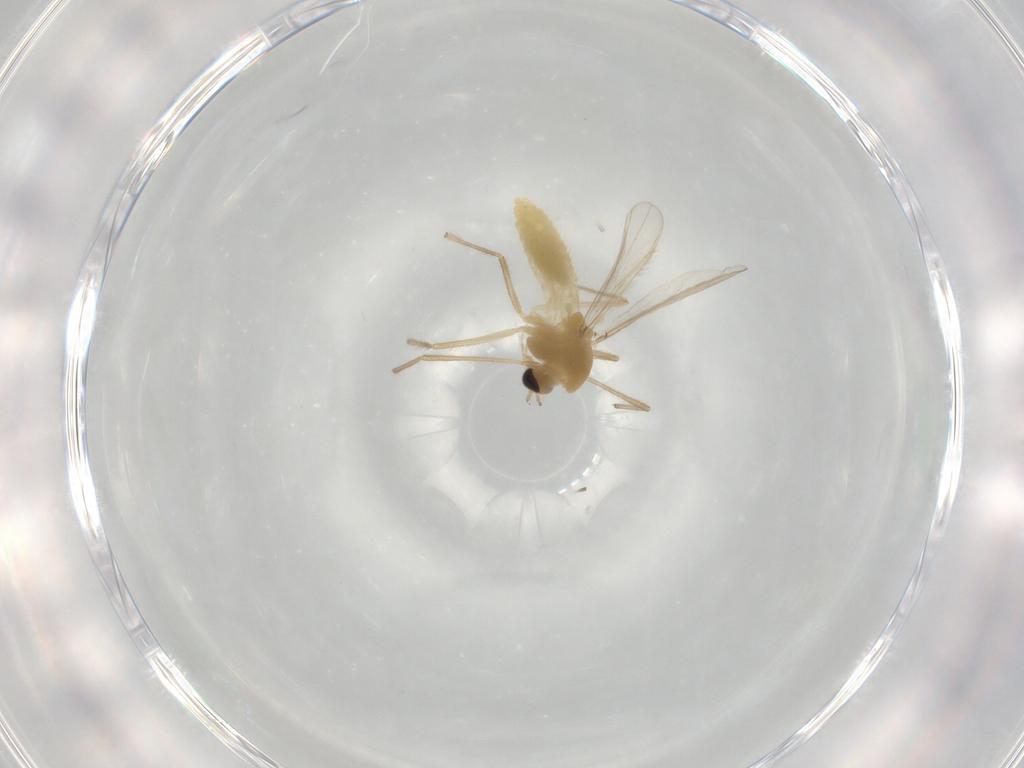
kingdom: Animalia
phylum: Arthropoda
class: Insecta
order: Diptera
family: Chironomidae
